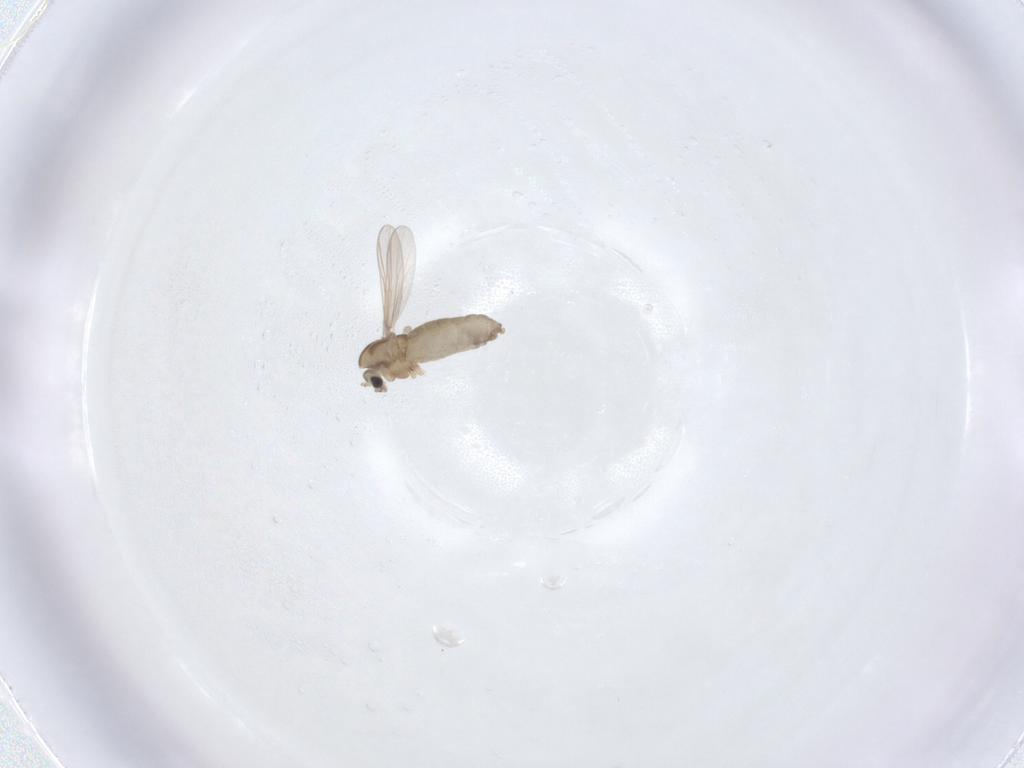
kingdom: Animalia
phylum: Arthropoda
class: Insecta
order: Diptera
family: Chironomidae
